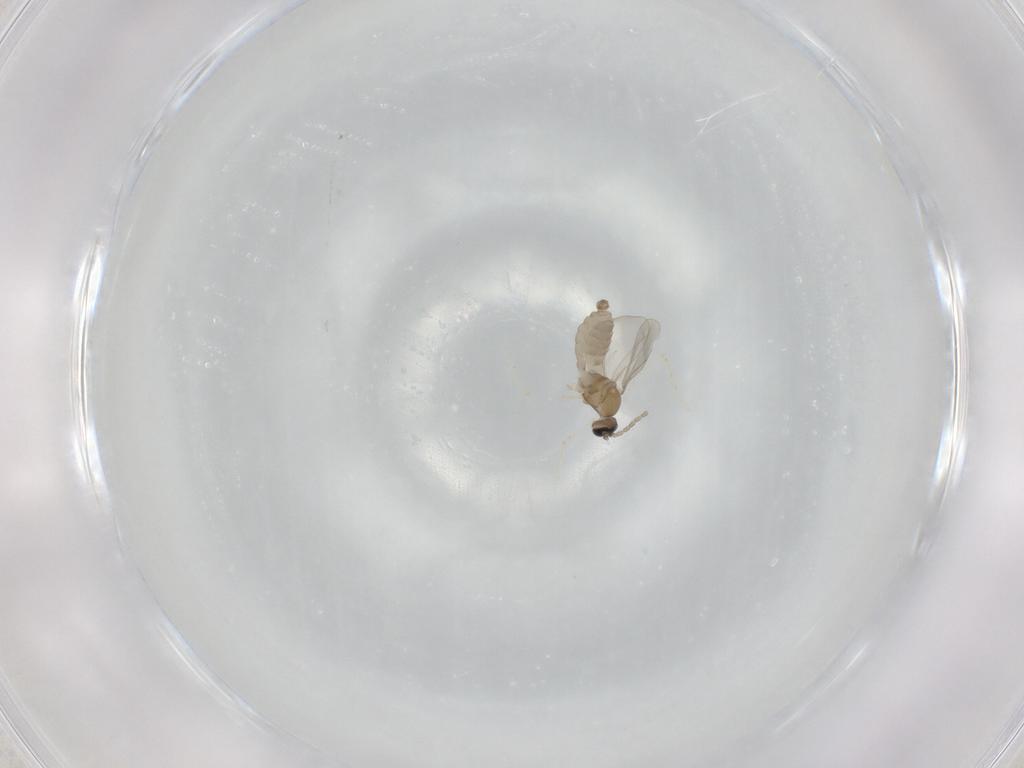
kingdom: Animalia
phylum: Arthropoda
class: Insecta
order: Diptera
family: Cecidomyiidae
